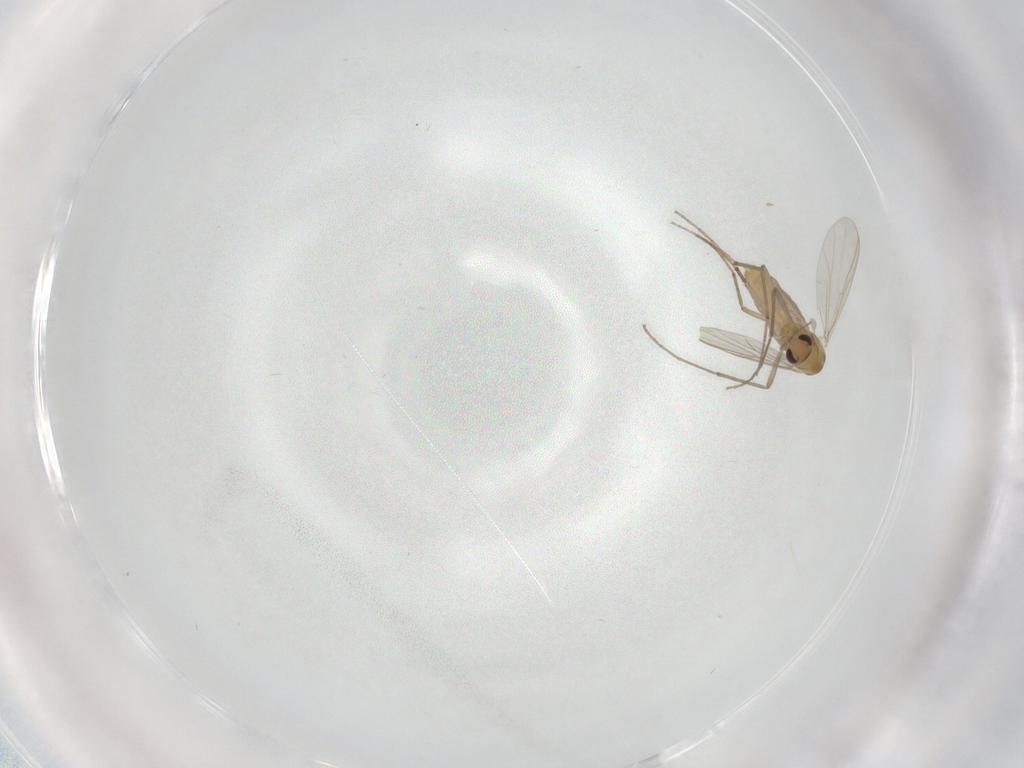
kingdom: Animalia
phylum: Arthropoda
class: Insecta
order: Diptera
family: Chironomidae
